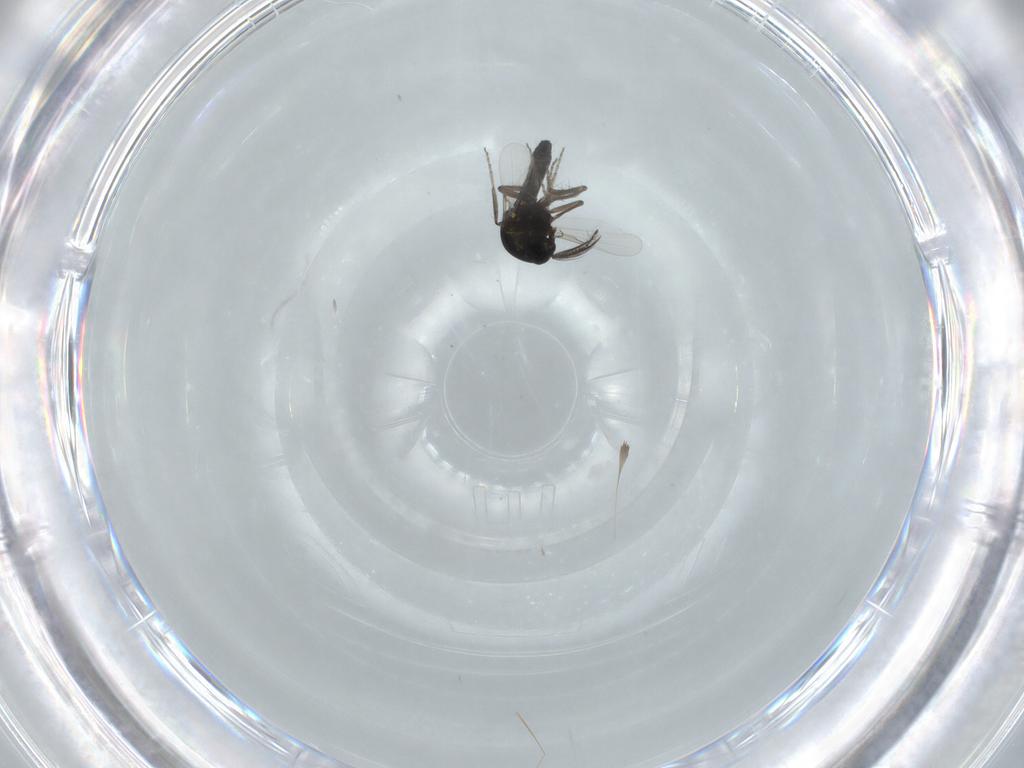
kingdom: Animalia
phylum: Arthropoda
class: Insecta
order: Diptera
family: Ceratopogonidae
